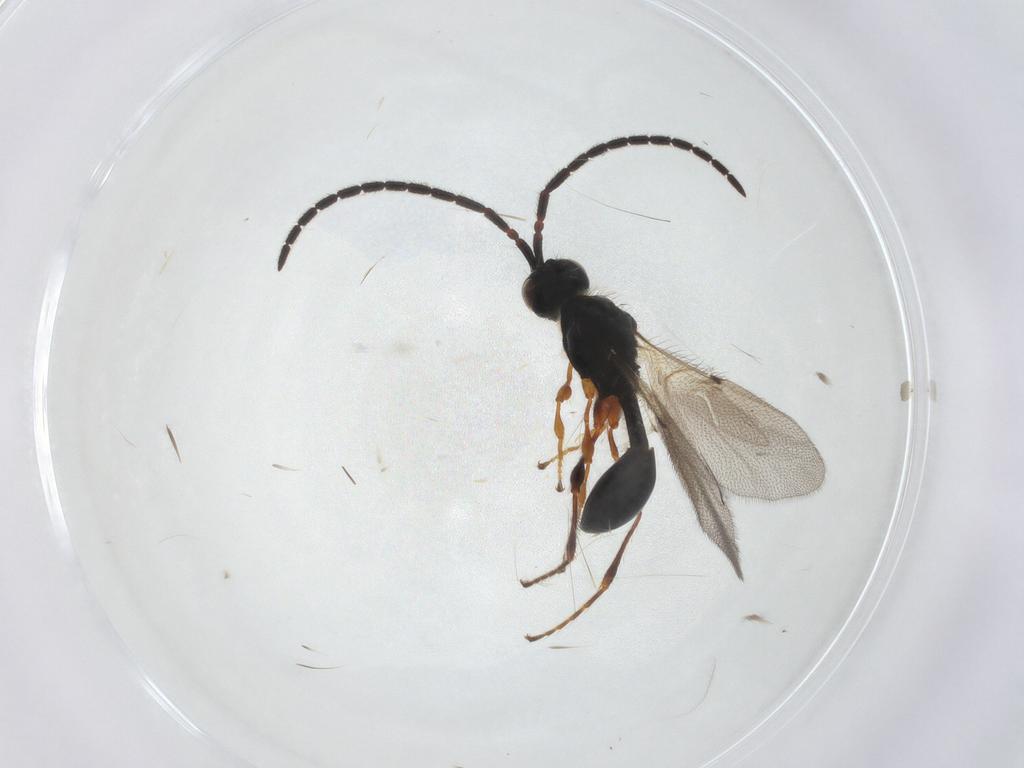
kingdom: Animalia
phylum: Arthropoda
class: Insecta
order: Hymenoptera
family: Diapriidae
